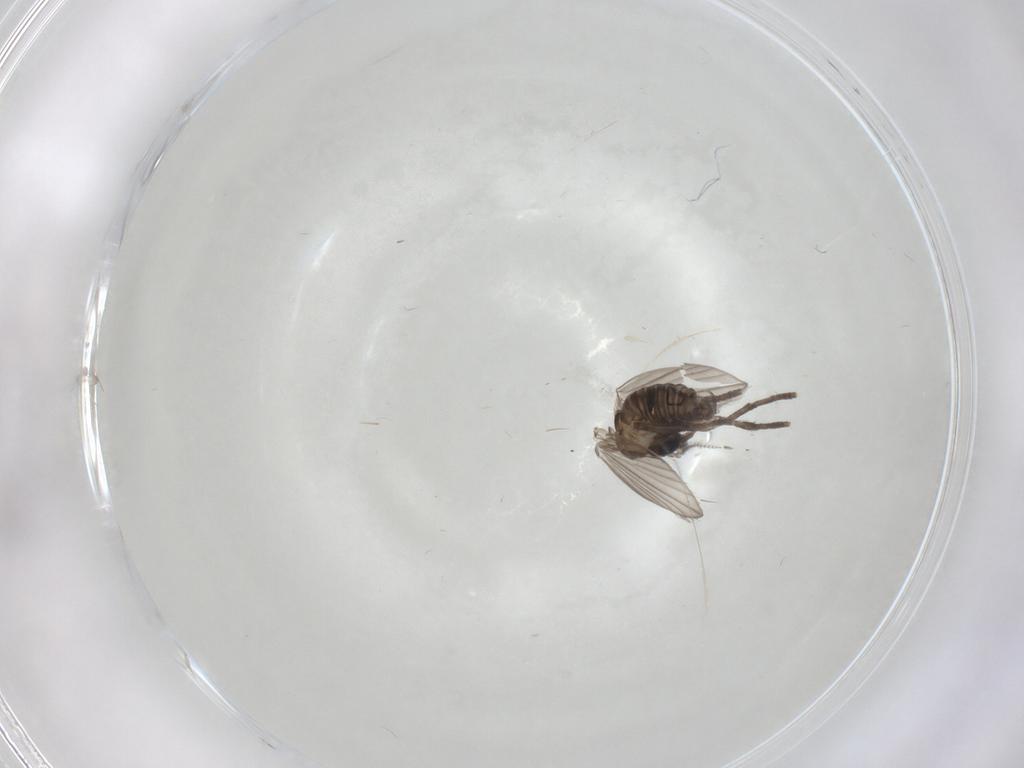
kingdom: Animalia
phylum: Arthropoda
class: Insecta
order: Diptera
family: Psychodidae
